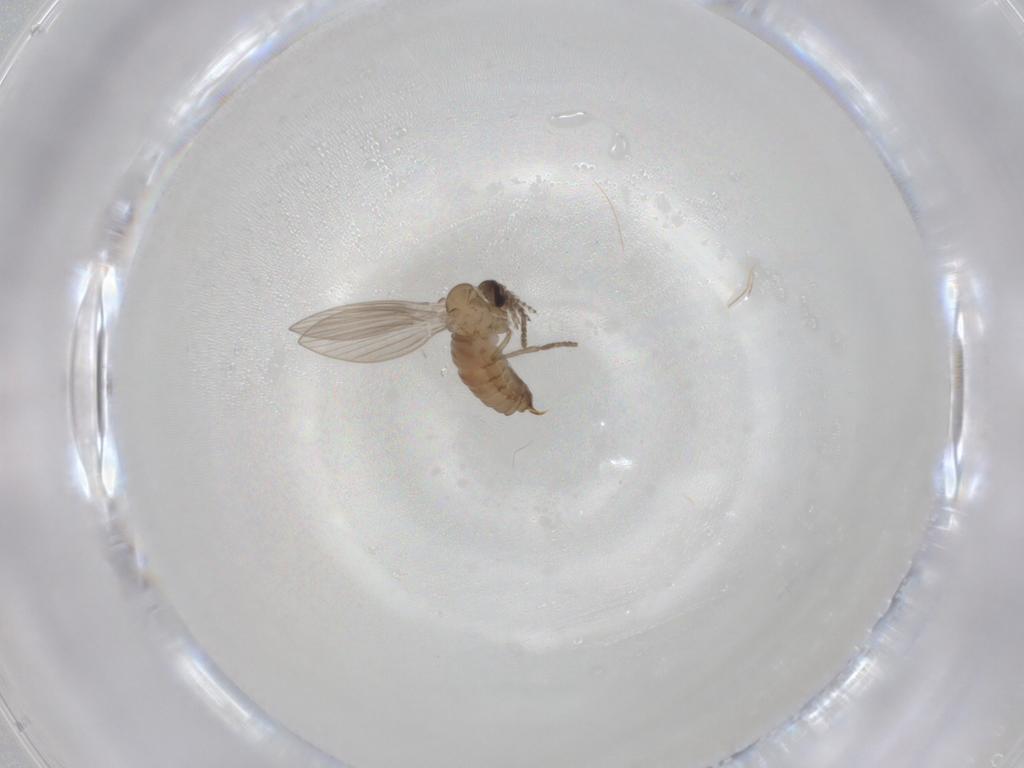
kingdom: Animalia
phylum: Arthropoda
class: Insecta
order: Diptera
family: Psychodidae
